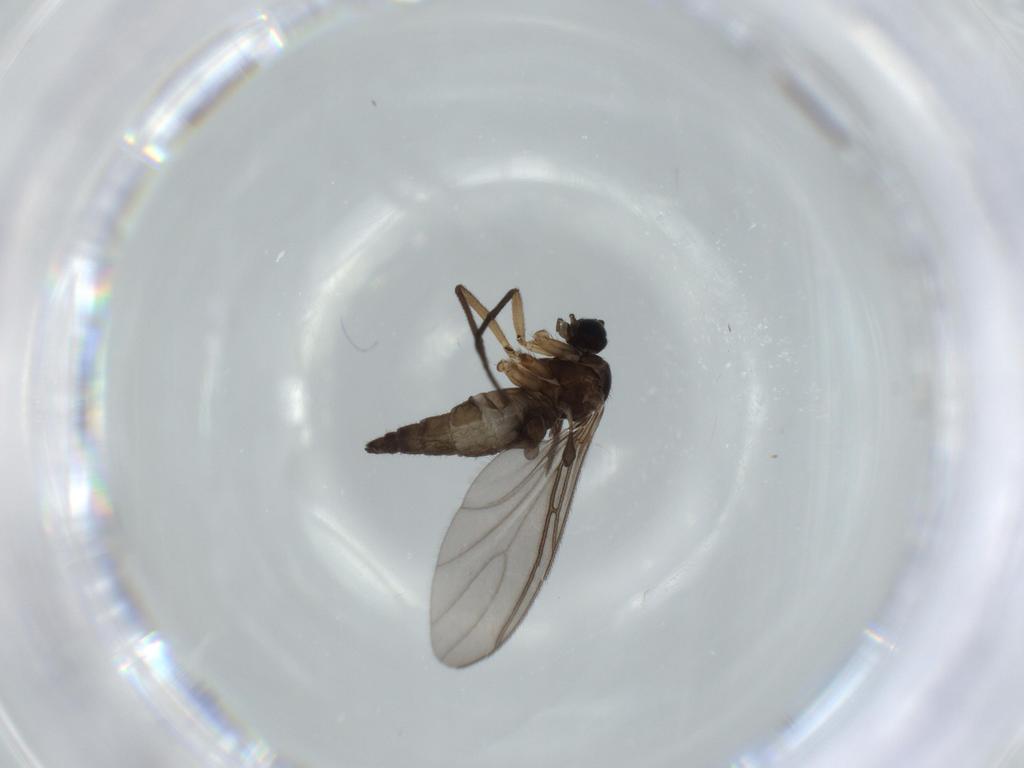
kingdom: Animalia
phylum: Arthropoda
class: Insecta
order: Diptera
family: Sciaridae
